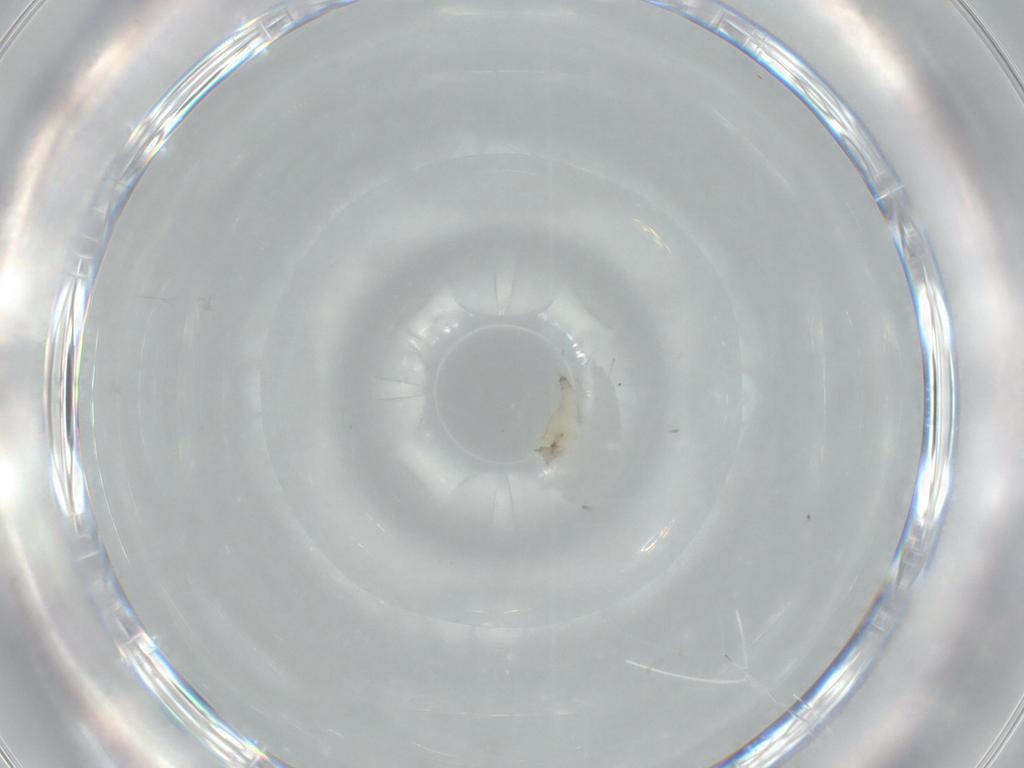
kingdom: Animalia
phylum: Arthropoda
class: Insecta
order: Diptera
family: Cecidomyiidae
